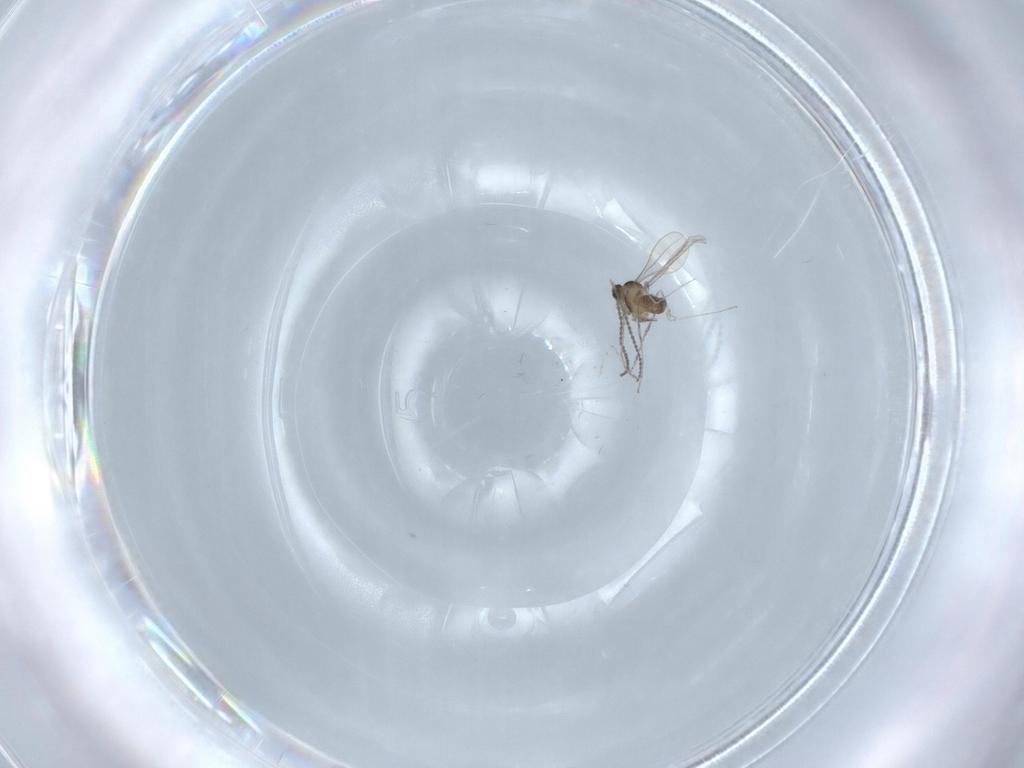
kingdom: Animalia
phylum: Arthropoda
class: Insecta
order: Diptera
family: Cecidomyiidae
